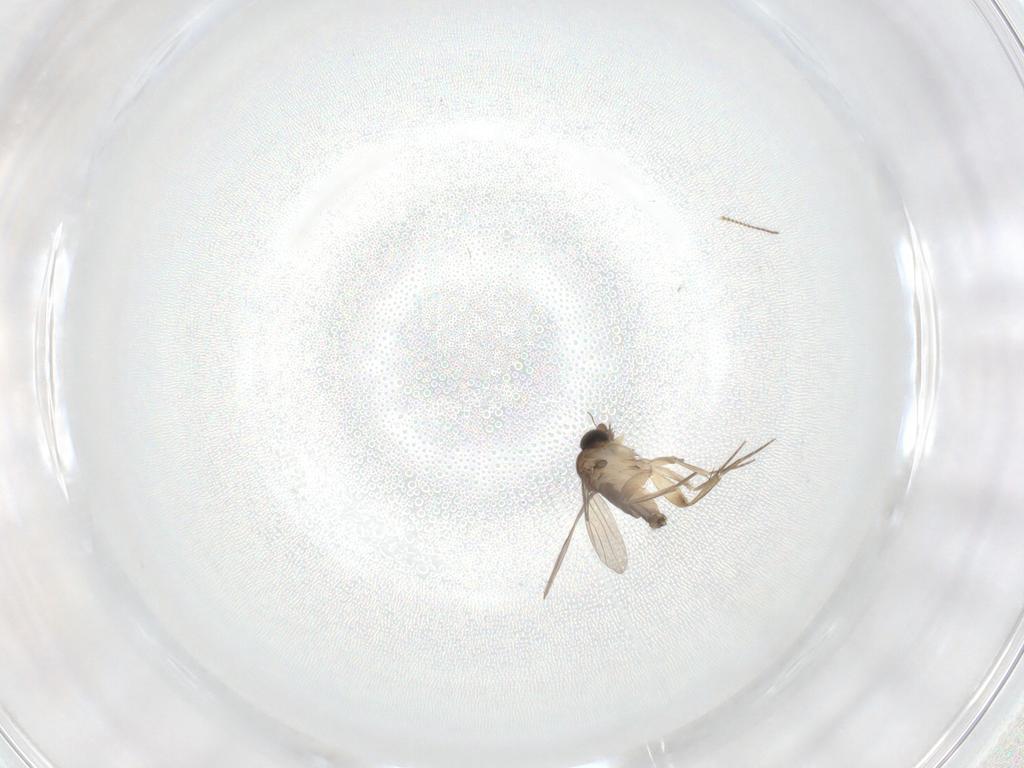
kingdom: Animalia
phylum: Arthropoda
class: Insecta
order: Diptera
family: Phoridae
